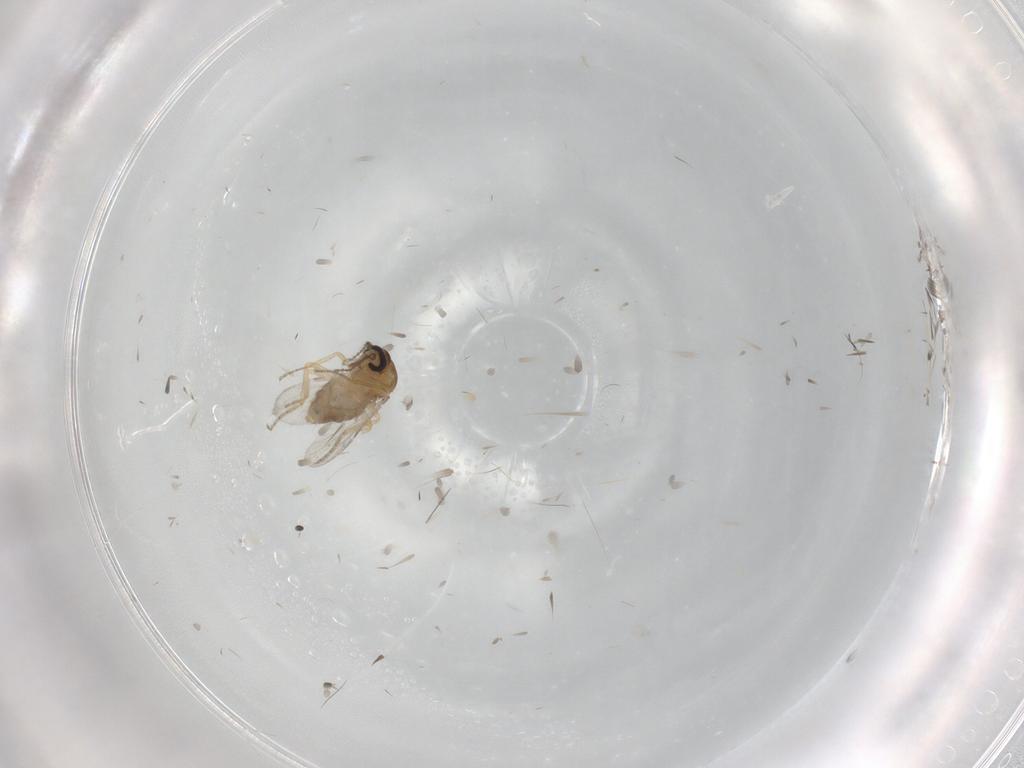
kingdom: Animalia
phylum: Arthropoda
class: Insecta
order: Diptera
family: Ceratopogonidae
